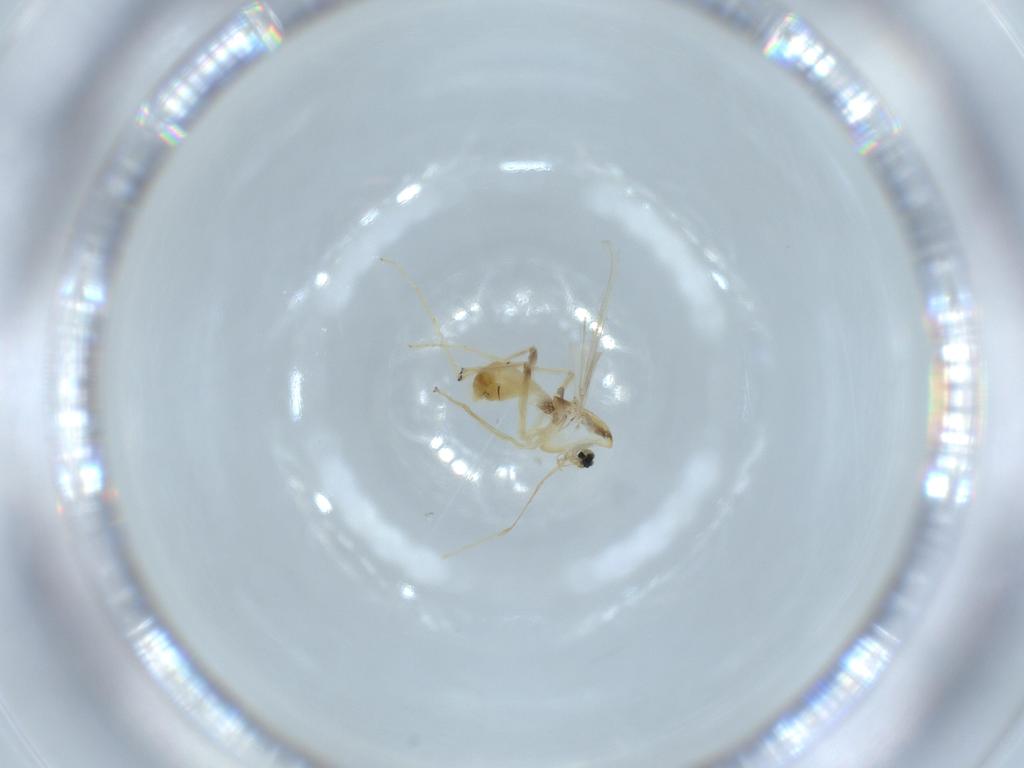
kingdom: Animalia
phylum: Arthropoda
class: Insecta
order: Diptera
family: Chironomidae
